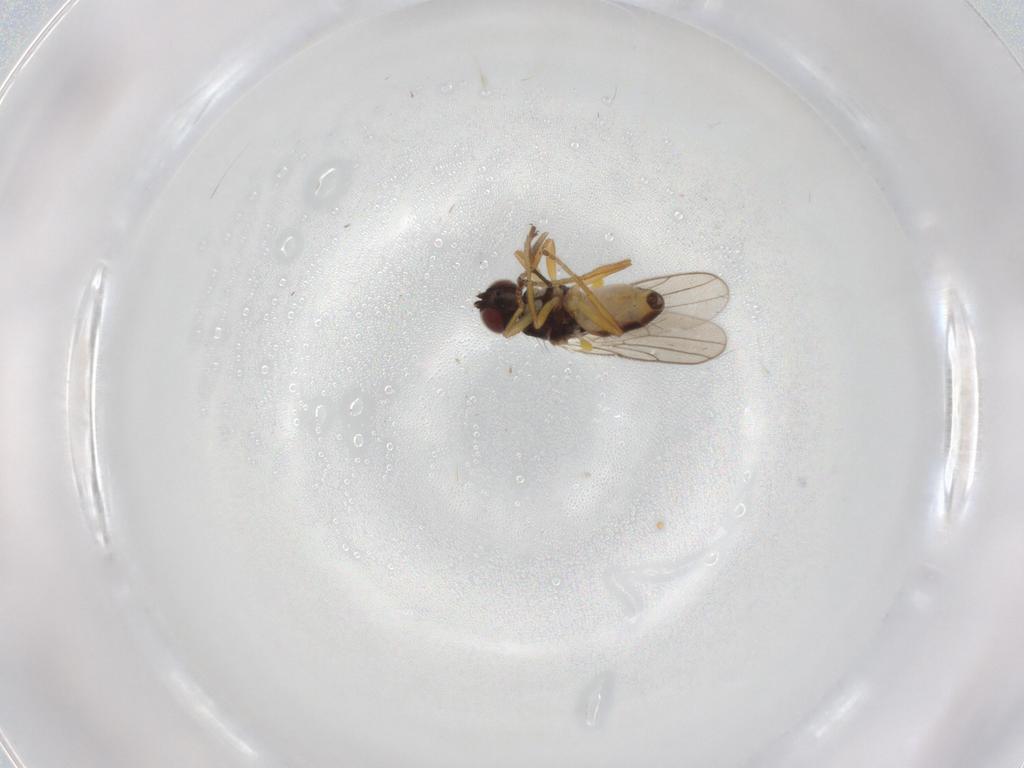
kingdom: Animalia
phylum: Arthropoda
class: Insecta
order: Diptera
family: Chloropidae
